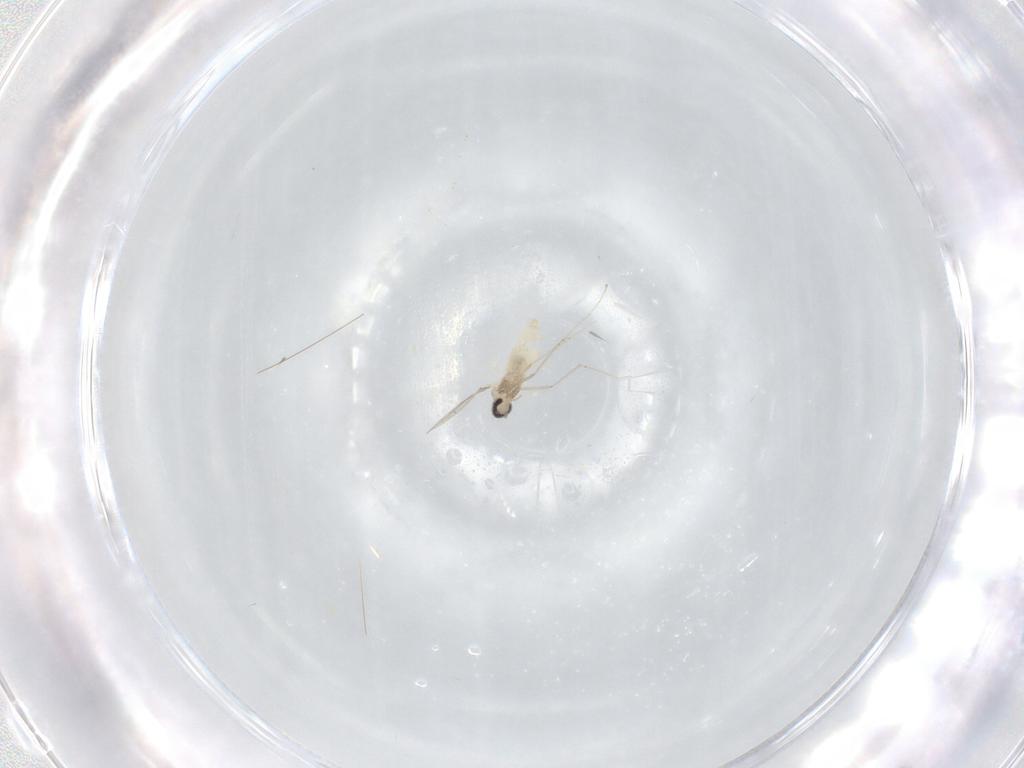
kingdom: Animalia
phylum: Arthropoda
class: Insecta
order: Diptera
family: Cecidomyiidae
